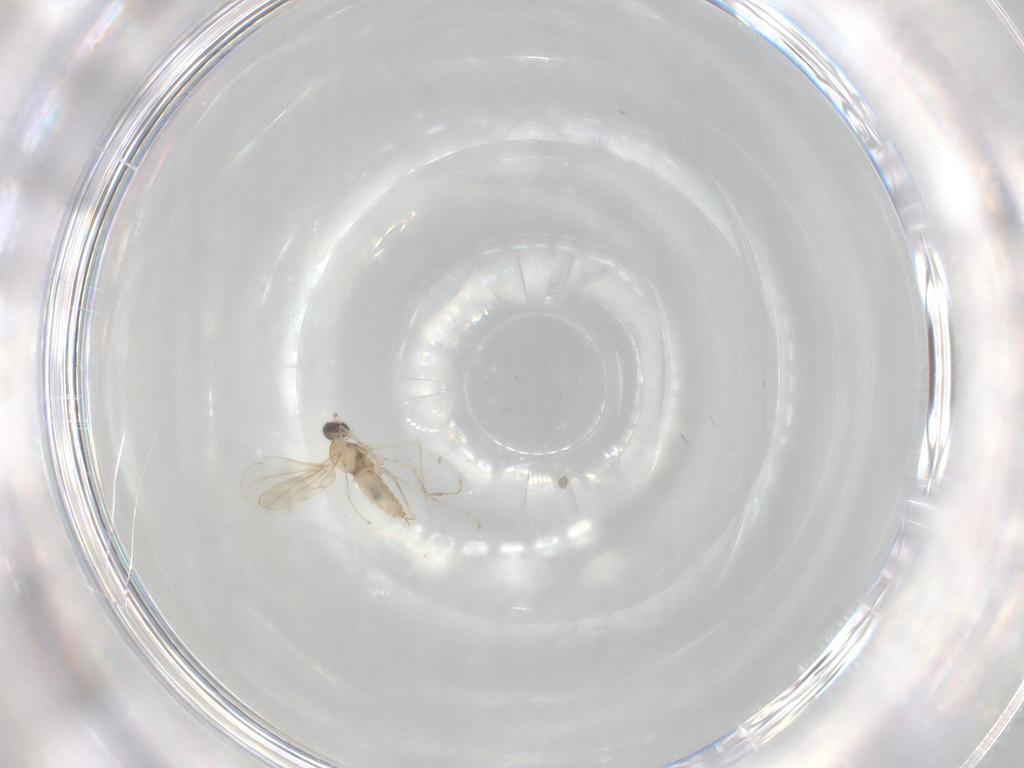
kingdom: Animalia
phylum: Arthropoda
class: Insecta
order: Diptera
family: Cecidomyiidae
